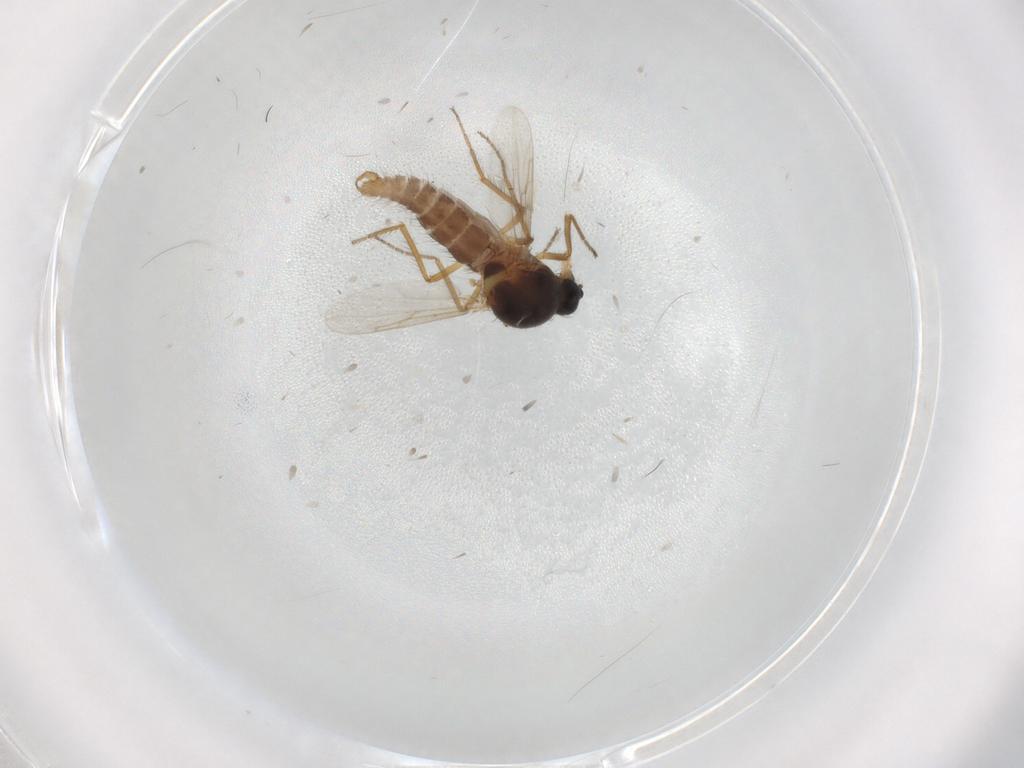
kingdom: Animalia
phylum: Arthropoda
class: Insecta
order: Diptera
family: Ceratopogonidae
